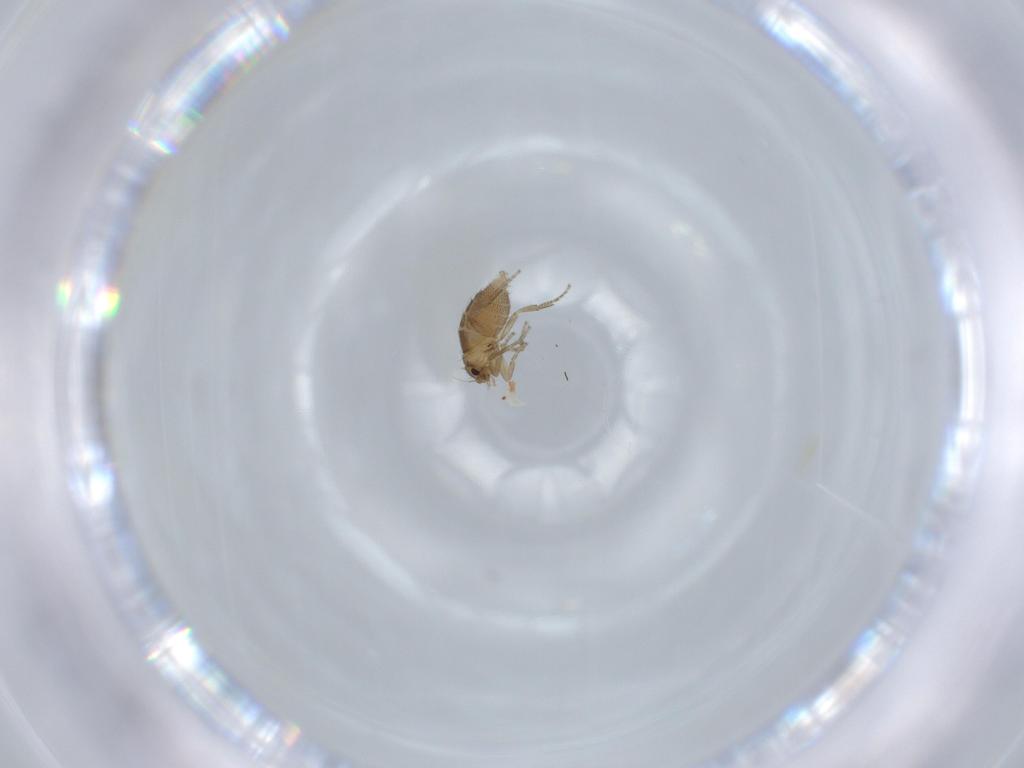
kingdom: Animalia
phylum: Arthropoda
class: Insecta
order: Diptera
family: Phoridae
